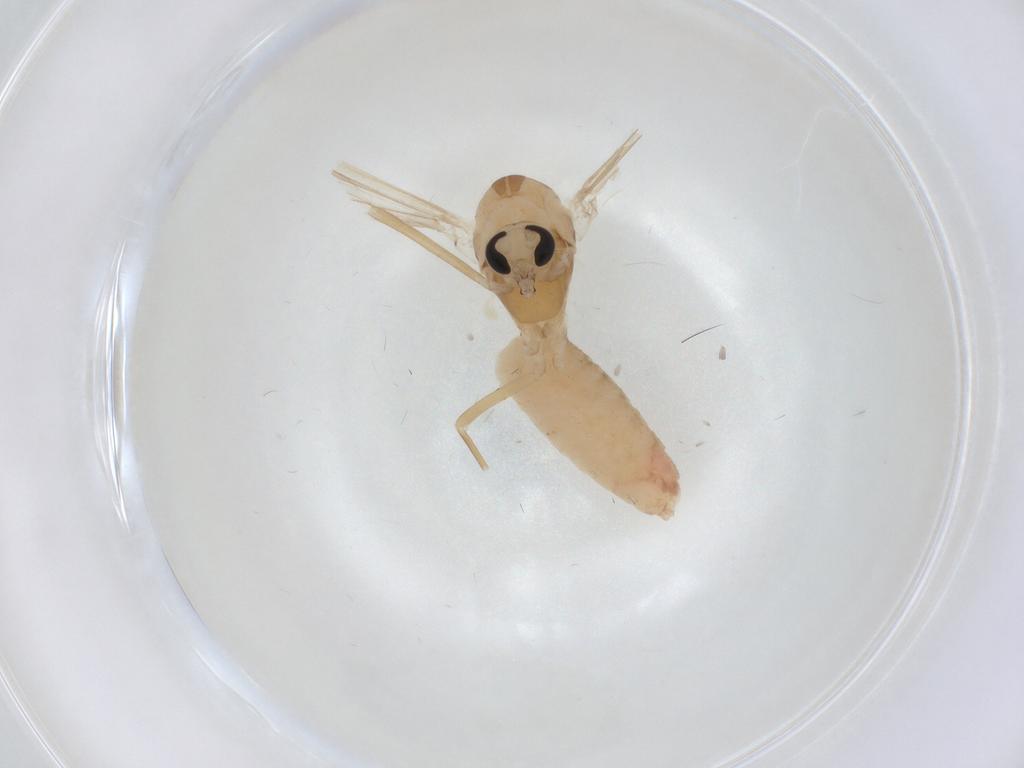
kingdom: Animalia
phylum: Arthropoda
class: Insecta
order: Diptera
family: Chironomidae
